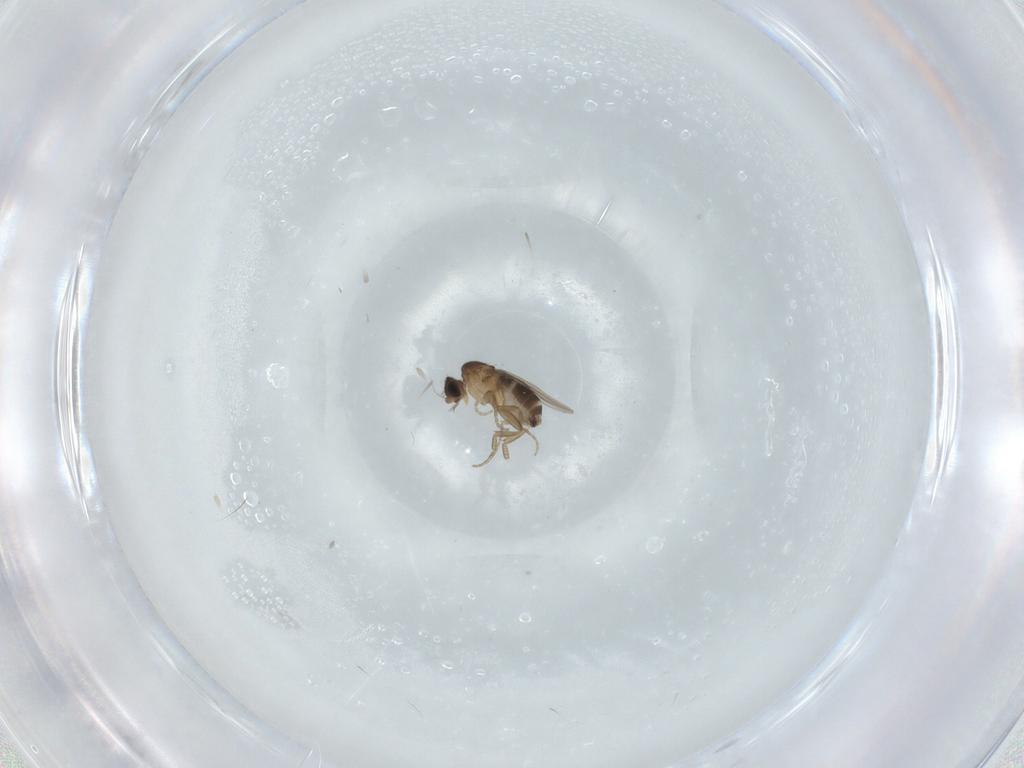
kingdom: Animalia
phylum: Arthropoda
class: Insecta
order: Diptera
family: Phoridae
